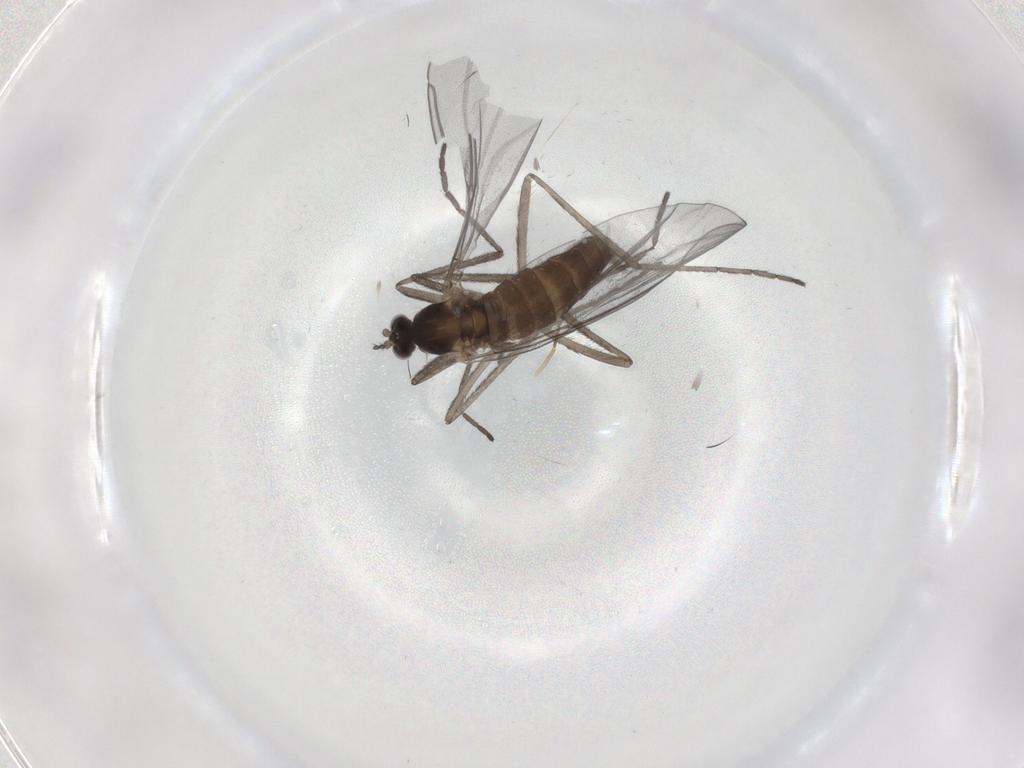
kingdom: Animalia
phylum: Arthropoda
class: Insecta
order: Diptera
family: Cecidomyiidae
